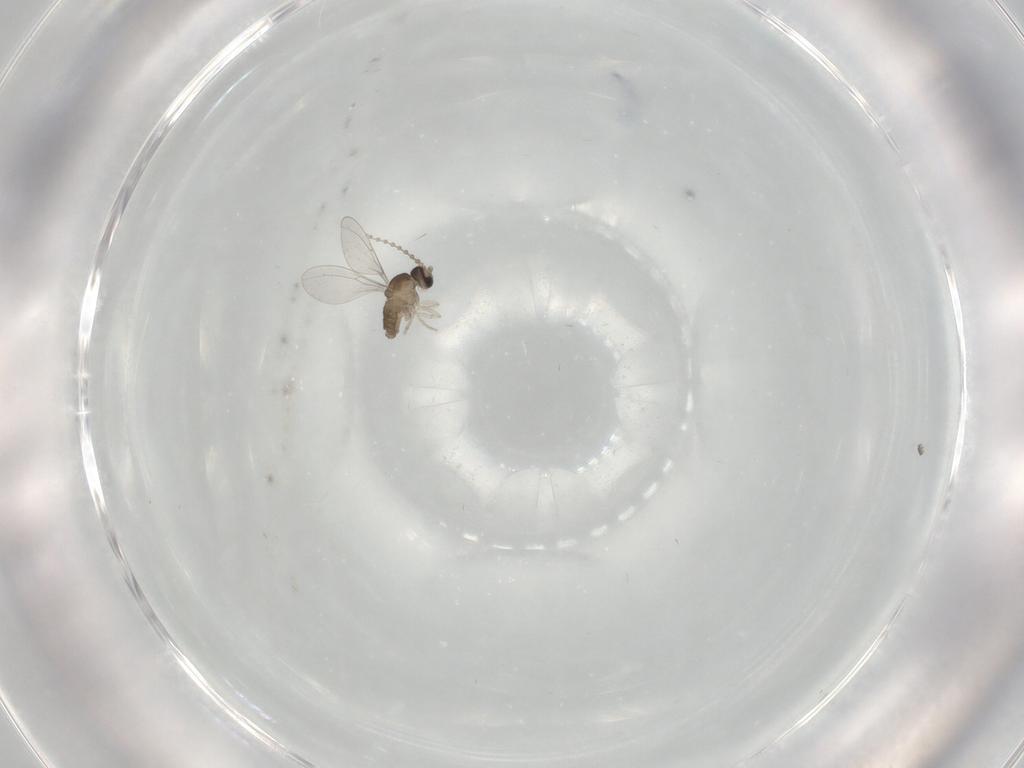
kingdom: Animalia
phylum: Arthropoda
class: Insecta
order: Diptera
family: Cecidomyiidae
